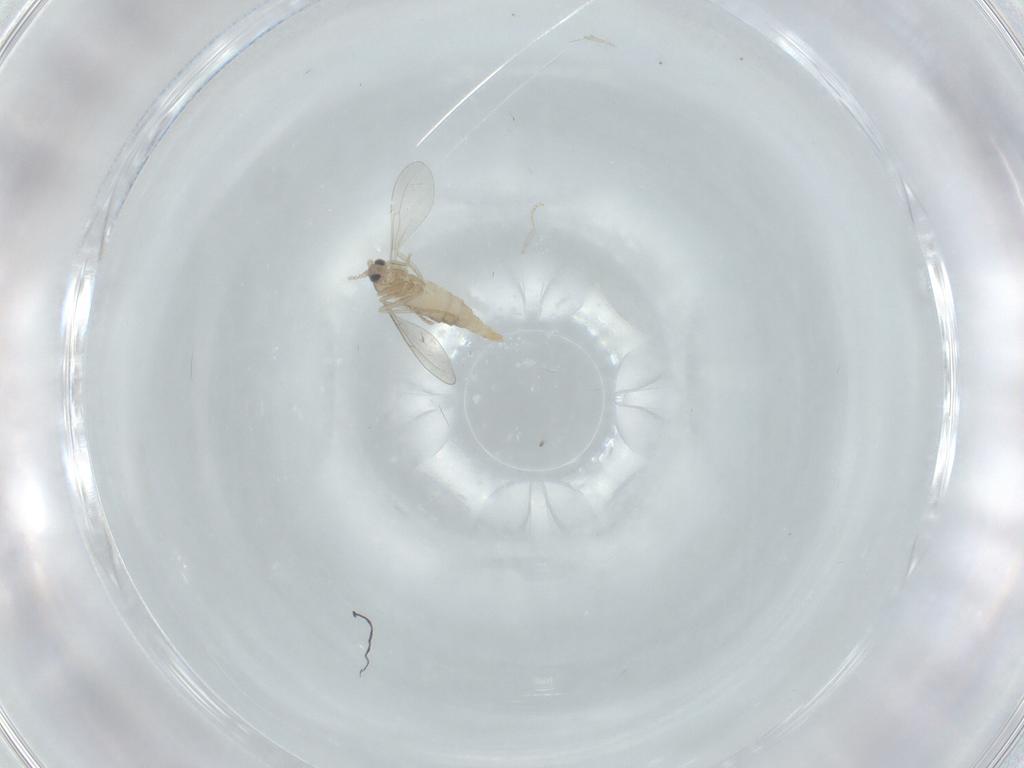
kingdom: Animalia
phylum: Arthropoda
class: Insecta
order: Diptera
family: Cecidomyiidae
